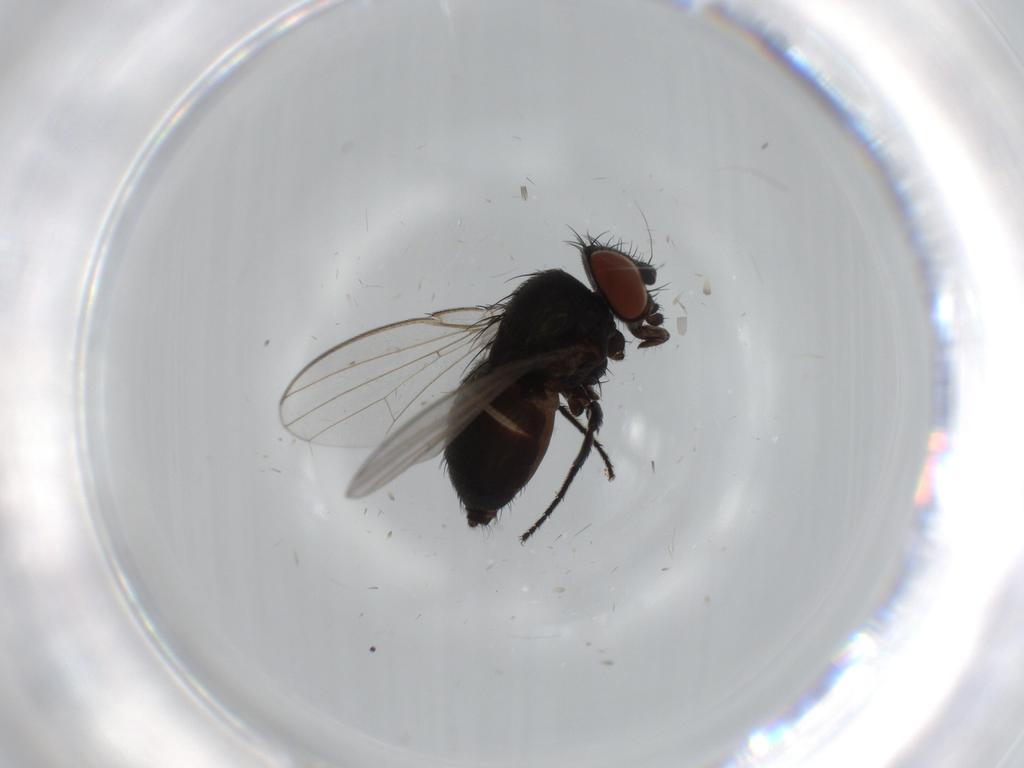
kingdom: Animalia
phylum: Arthropoda
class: Insecta
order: Diptera
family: Milichiidae
